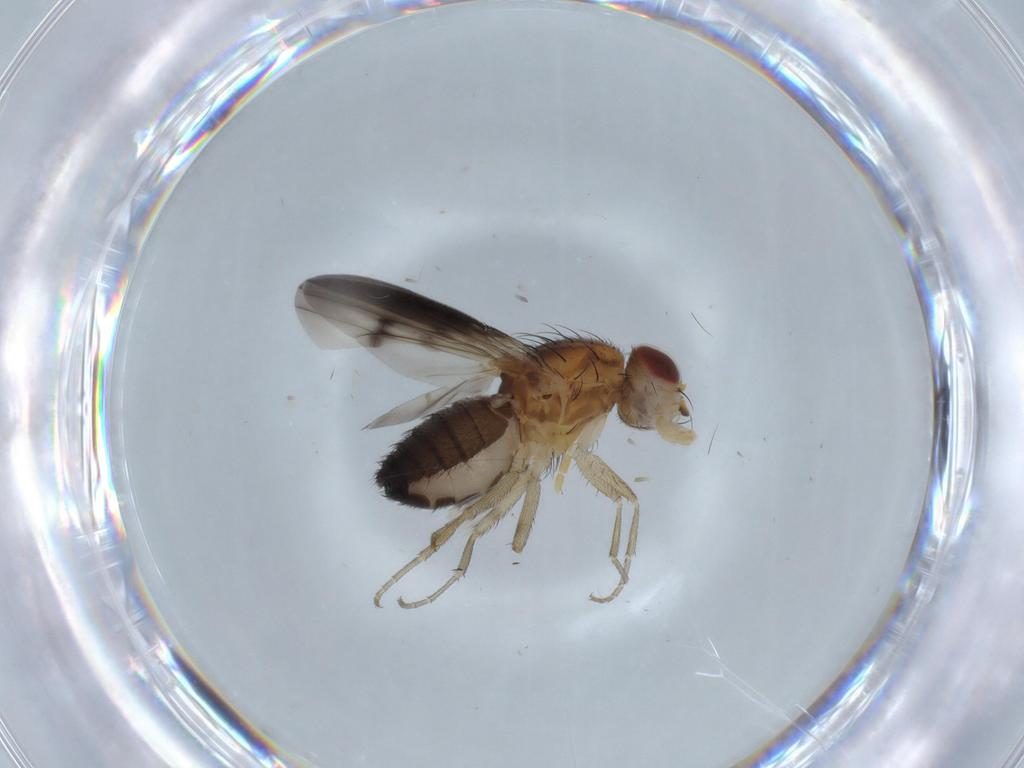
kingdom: Animalia
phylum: Arthropoda
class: Insecta
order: Diptera
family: Heleomyzidae
